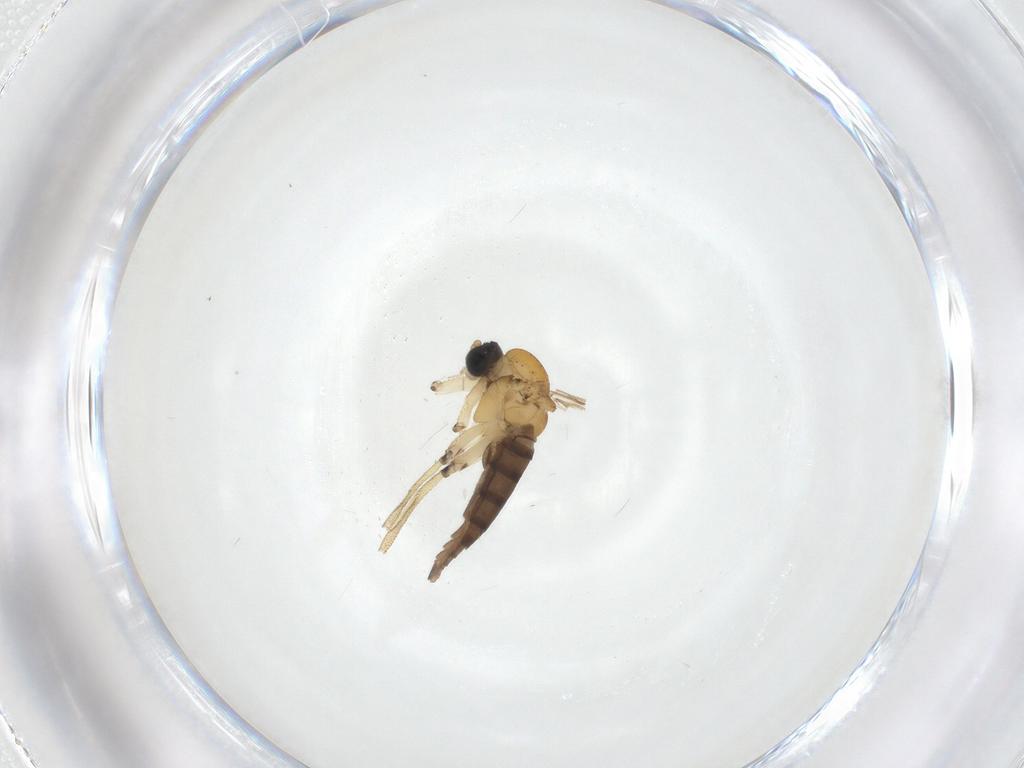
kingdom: Animalia
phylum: Arthropoda
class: Insecta
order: Diptera
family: Sciaridae
